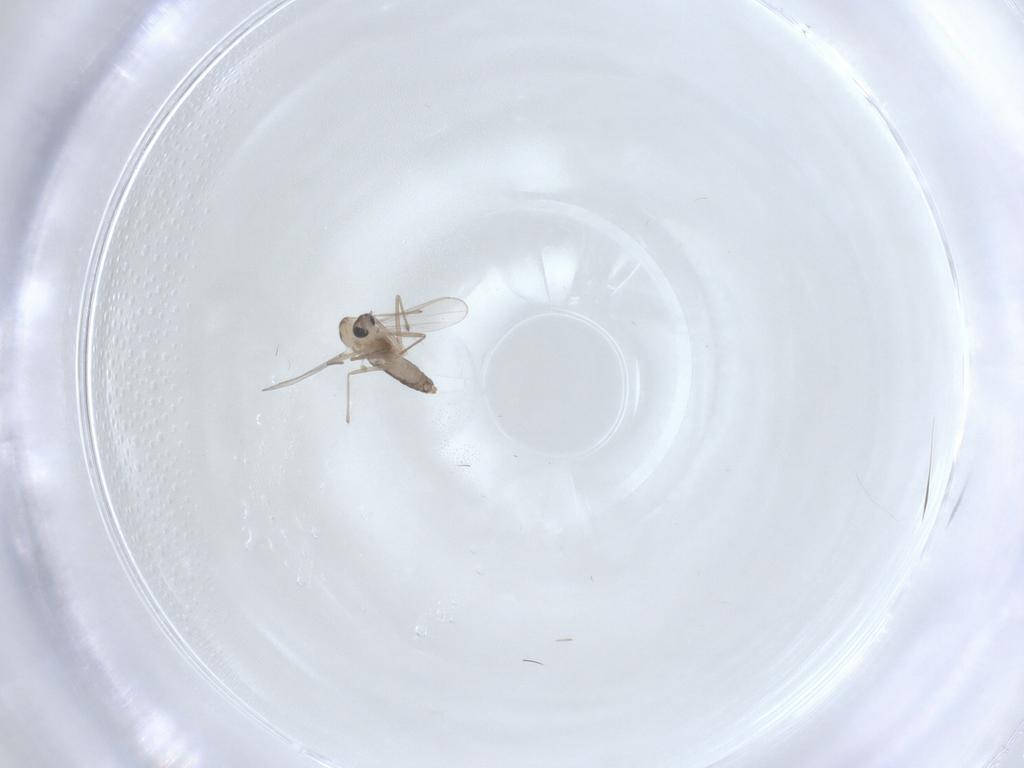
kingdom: Animalia
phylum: Arthropoda
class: Insecta
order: Diptera
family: Chironomidae
